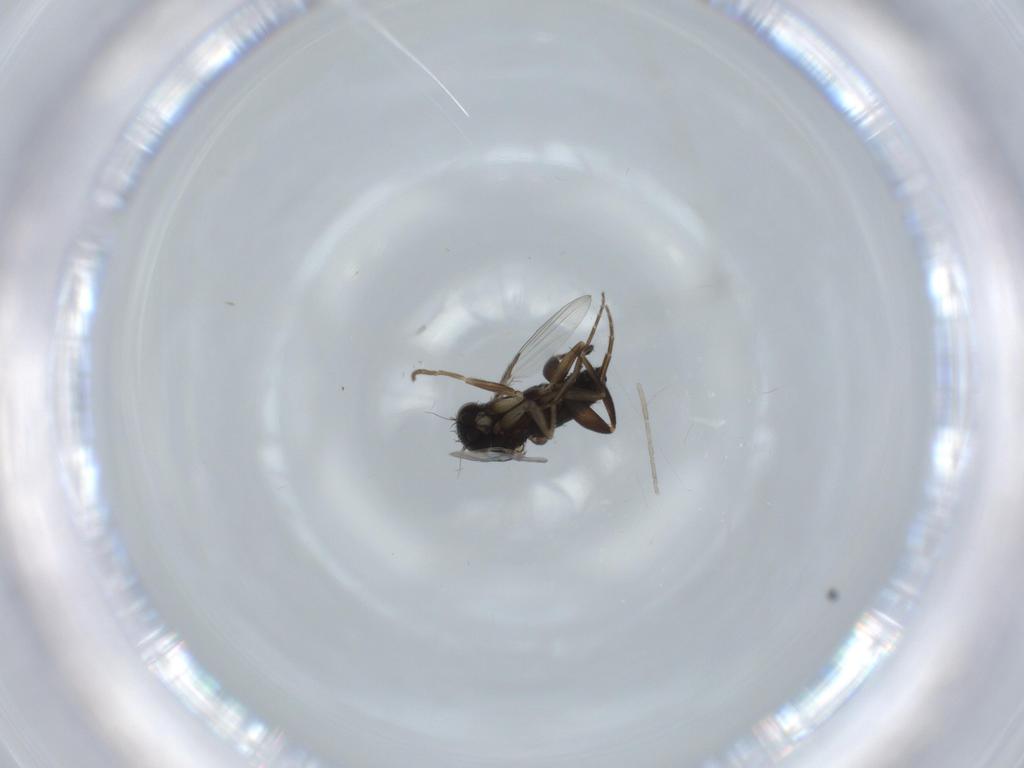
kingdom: Animalia
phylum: Arthropoda
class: Insecta
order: Diptera
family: Phoridae
